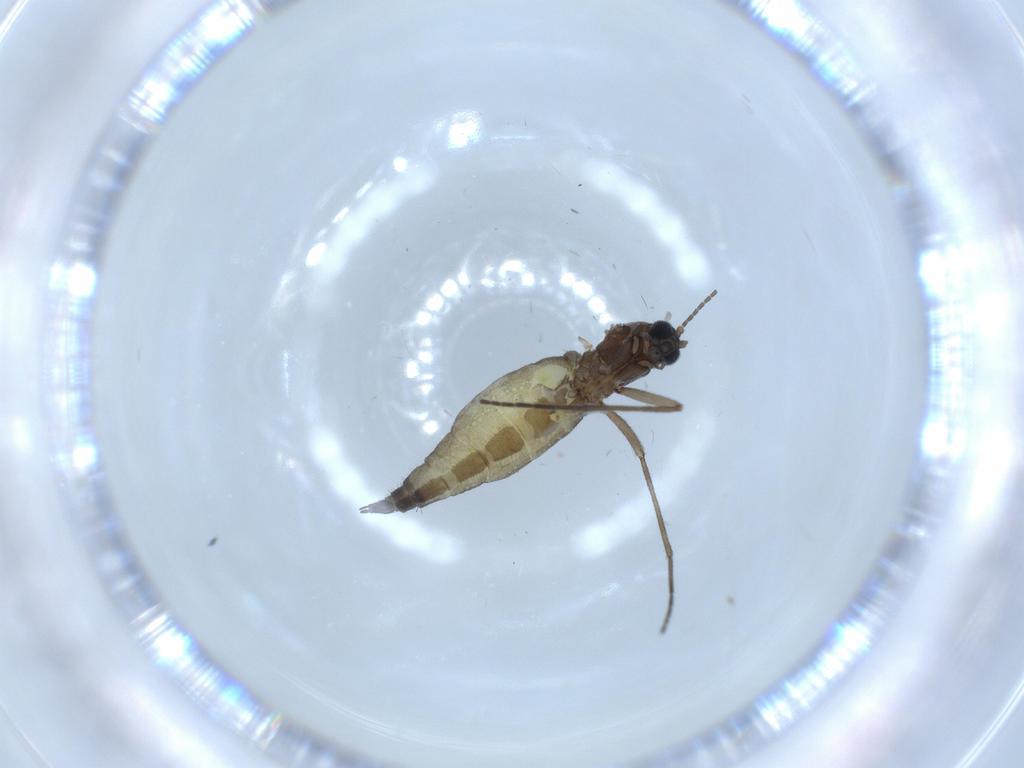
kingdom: Animalia
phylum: Arthropoda
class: Insecta
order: Diptera
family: Sciaridae
